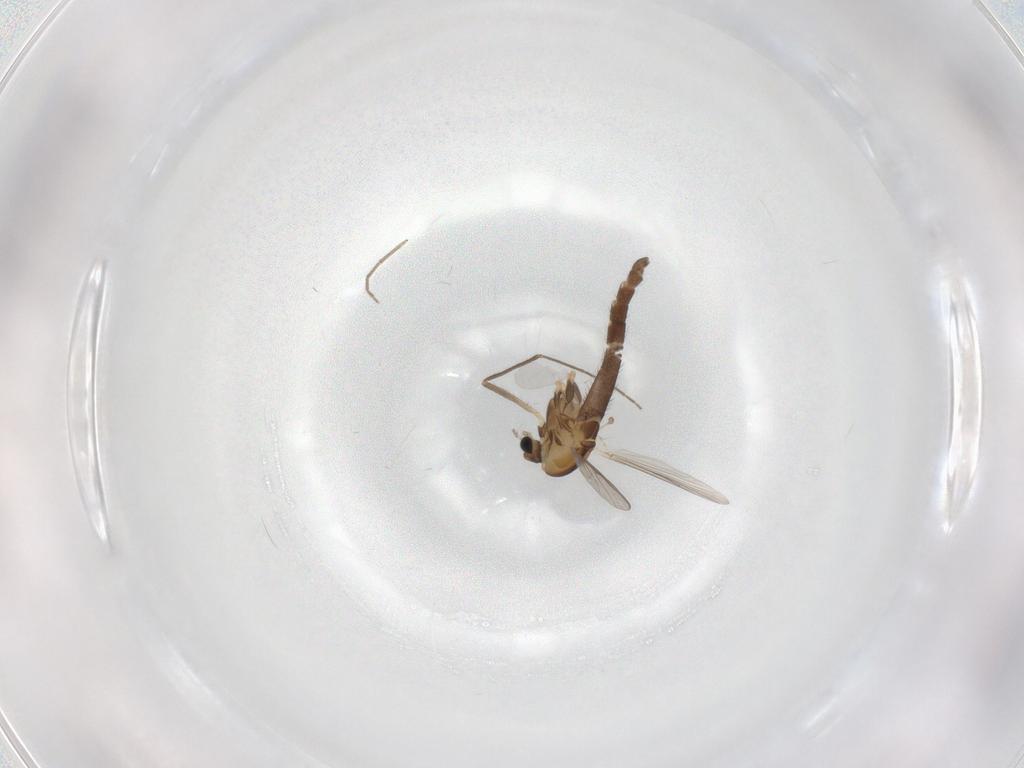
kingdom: Animalia
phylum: Arthropoda
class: Insecta
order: Diptera
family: Chironomidae
